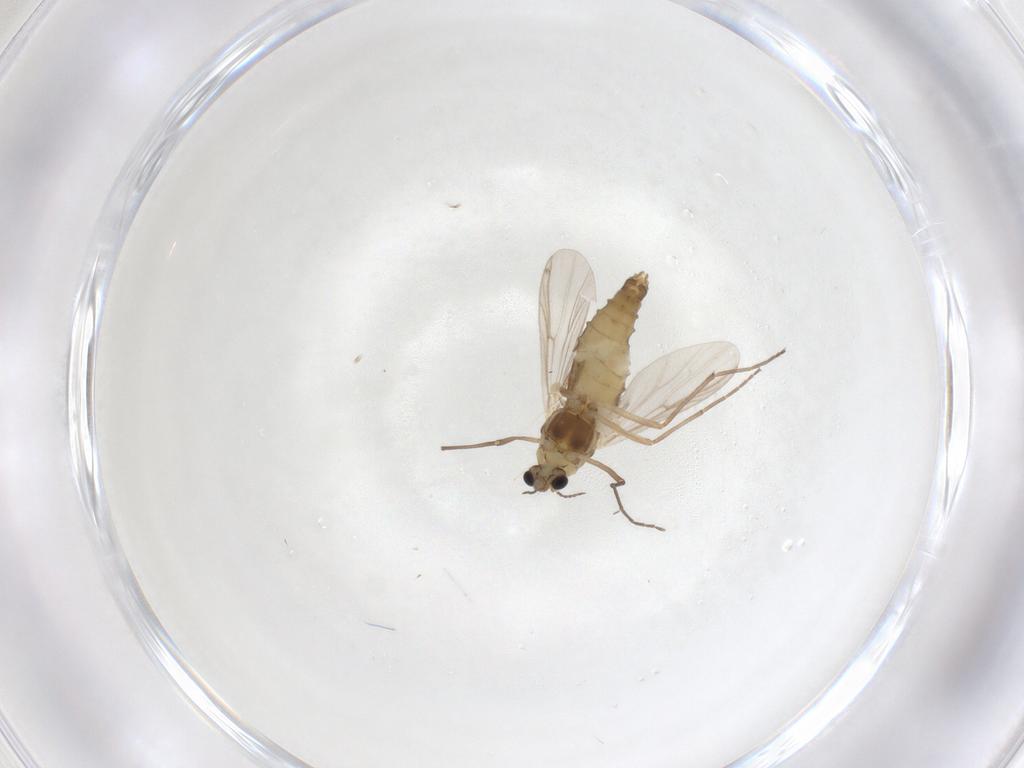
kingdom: Animalia
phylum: Arthropoda
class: Insecta
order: Diptera
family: Chironomidae
